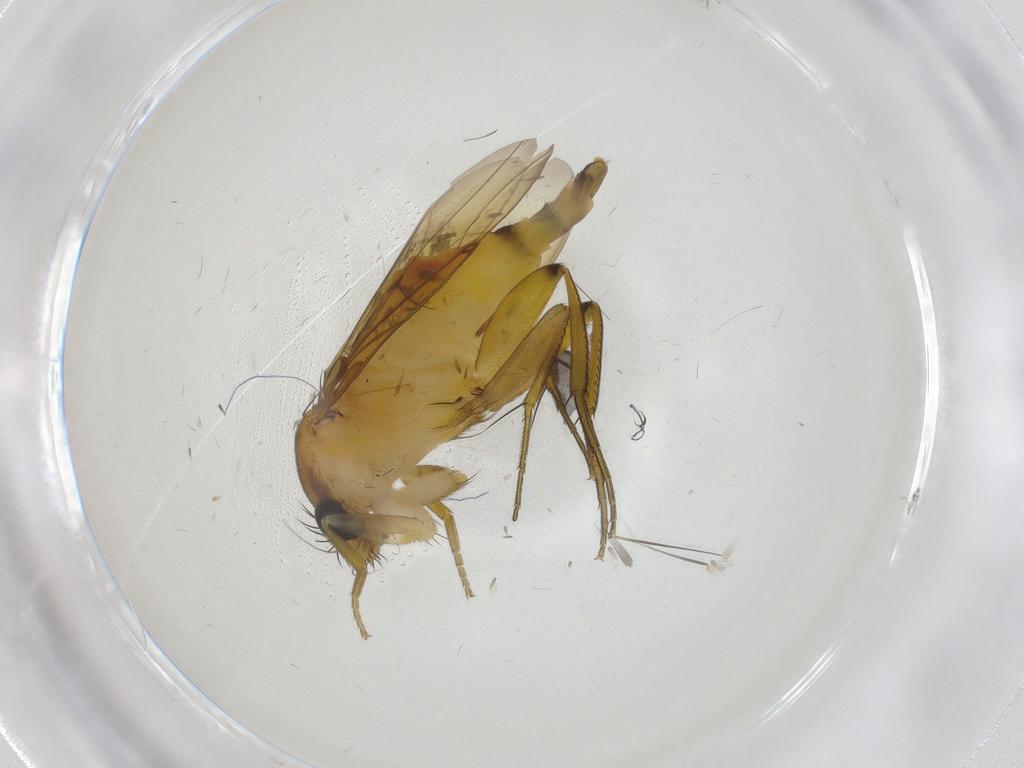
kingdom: Animalia
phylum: Arthropoda
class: Insecta
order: Diptera
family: Phoridae
